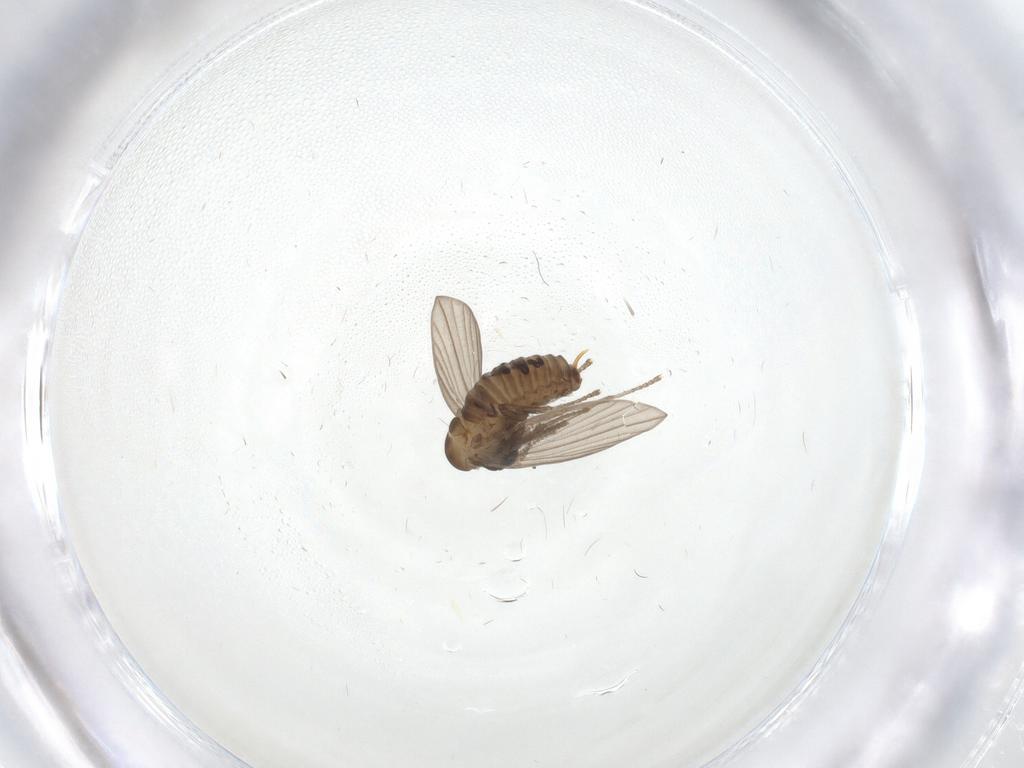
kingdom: Animalia
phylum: Arthropoda
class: Insecta
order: Diptera
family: Psychodidae
